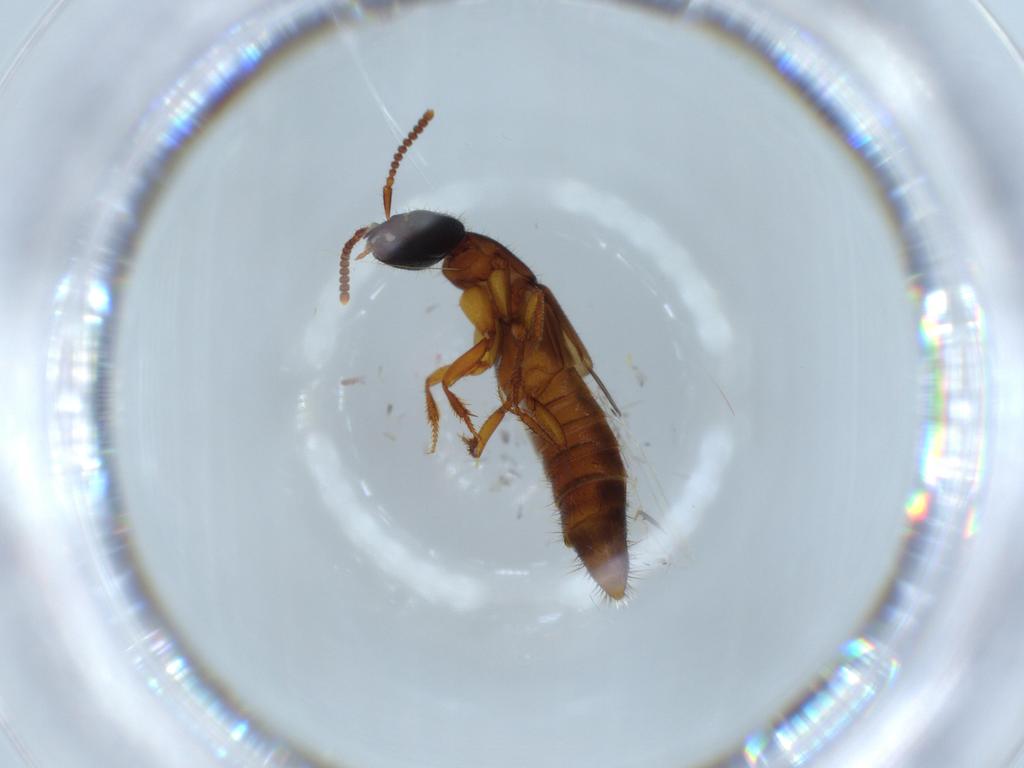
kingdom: Animalia
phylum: Arthropoda
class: Insecta
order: Coleoptera
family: Staphylinidae
